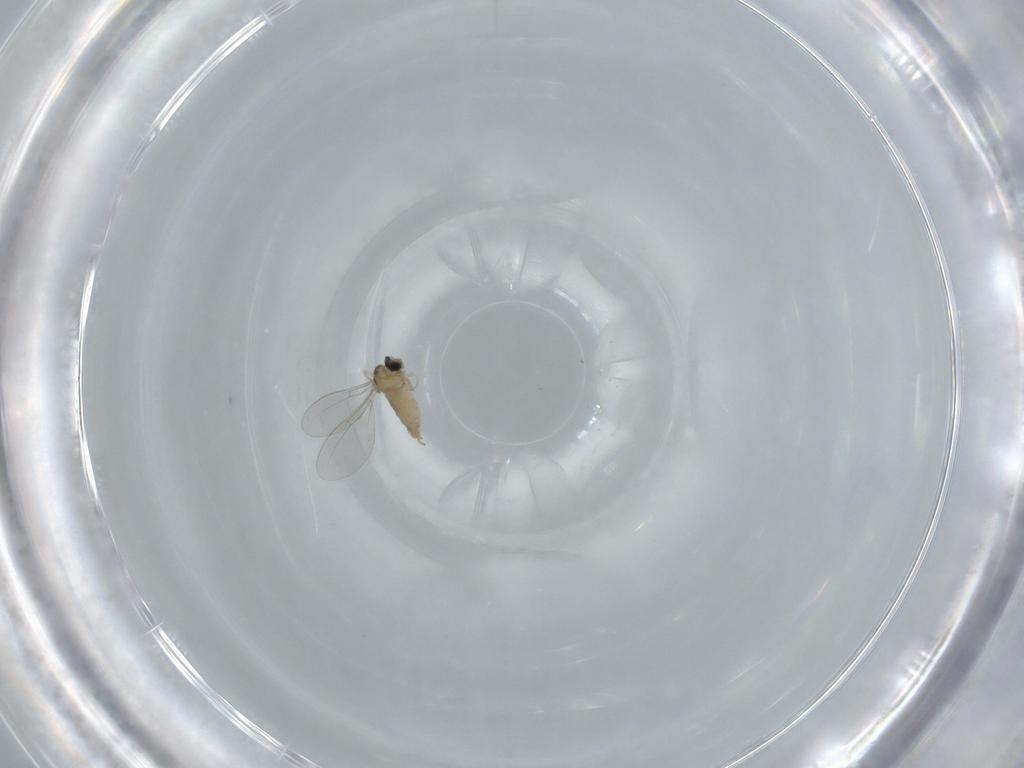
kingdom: Animalia
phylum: Arthropoda
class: Insecta
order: Diptera
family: Cecidomyiidae
